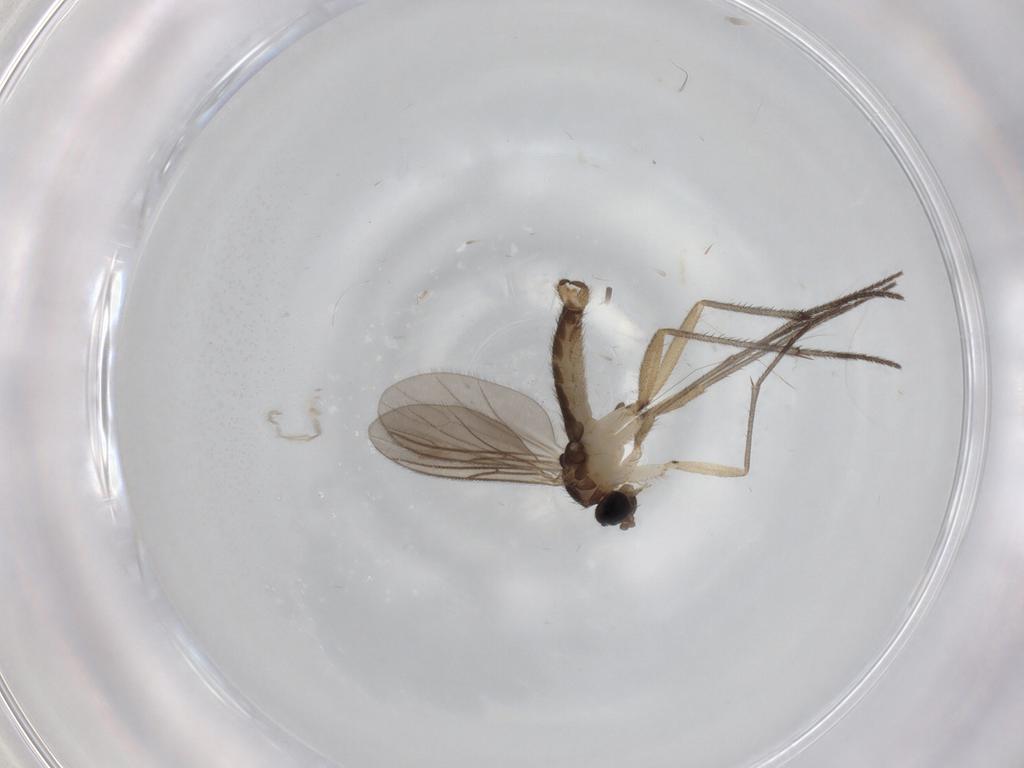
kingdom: Animalia
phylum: Arthropoda
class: Insecta
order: Diptera
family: Sciaridae
